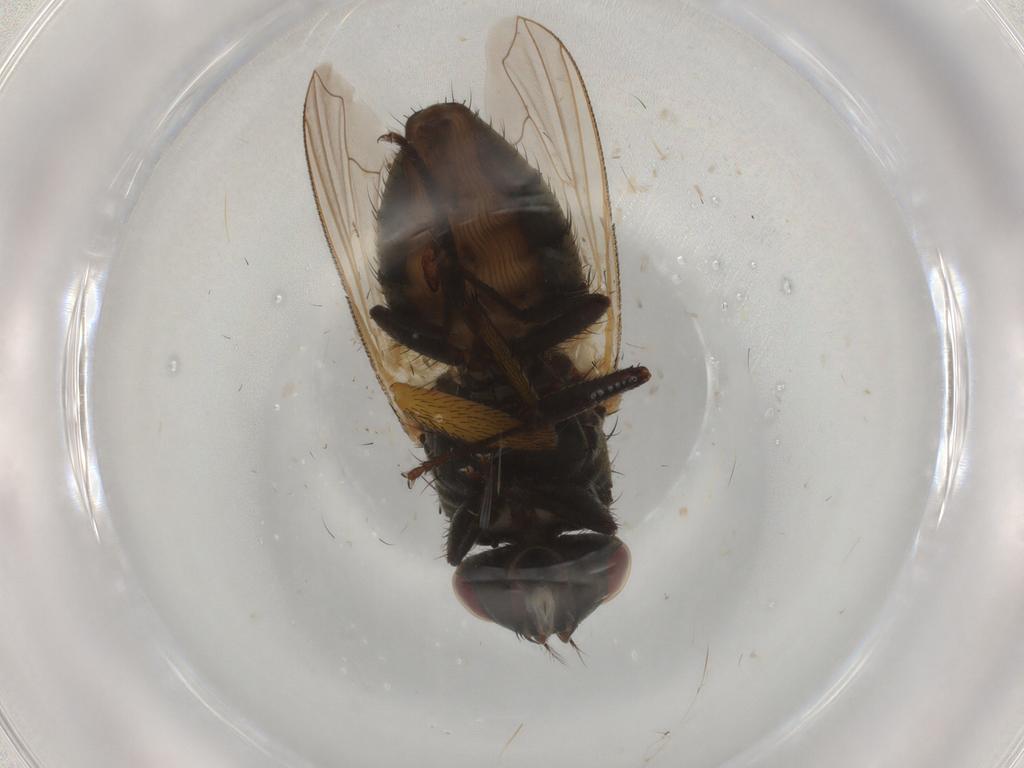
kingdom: Animalia
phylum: Arthropoda
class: Insecta
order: Diptera
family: Muscidae
